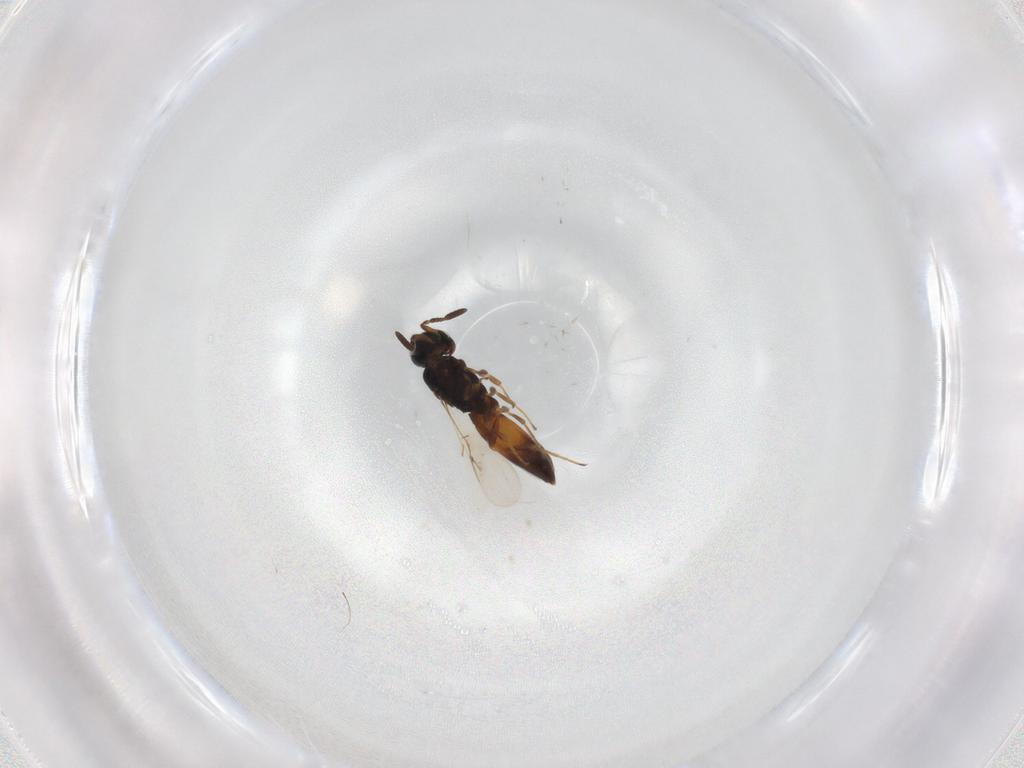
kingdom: Animalia
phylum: Arthropoda
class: Insecta
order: Hymenoptera
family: Scelionidae
